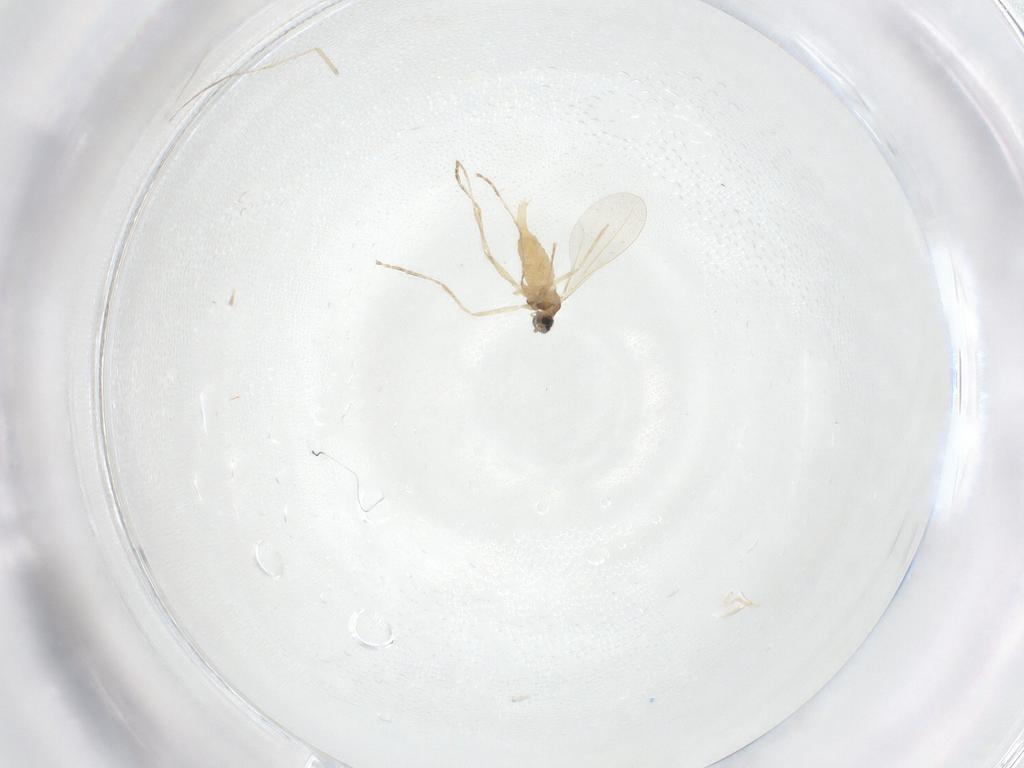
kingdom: Animalia
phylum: Arthropoda
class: Insecta
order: Diptera
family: Cecidomyiidae
